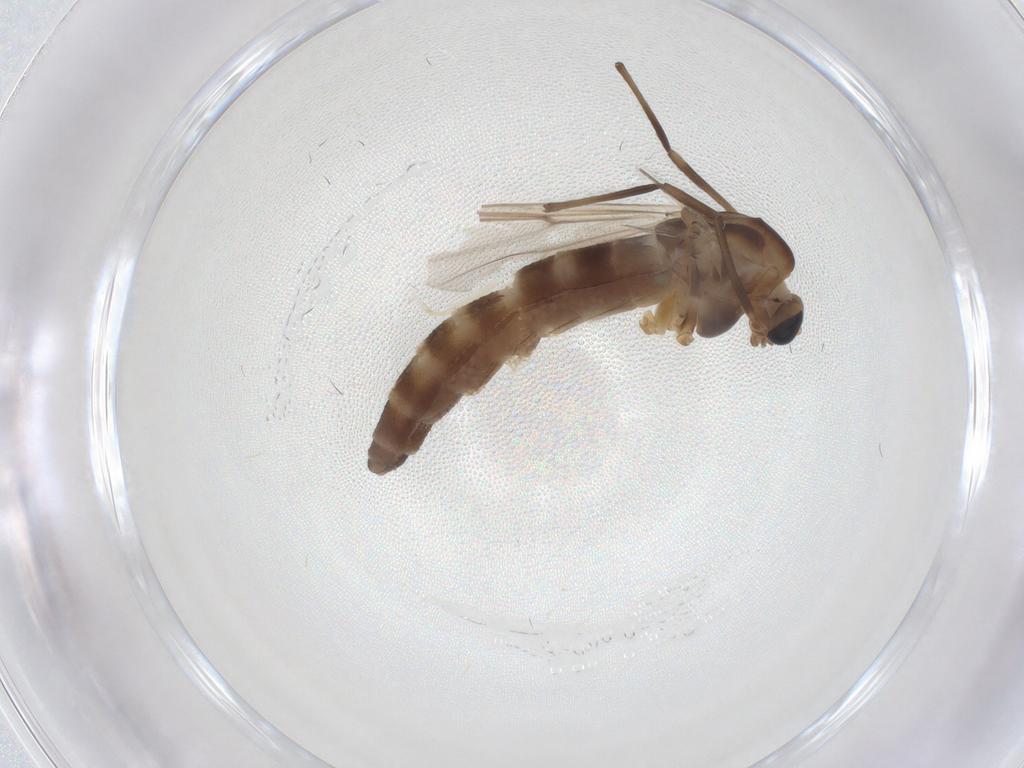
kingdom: Animalia
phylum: Arthropoda
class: Insecta
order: Diptera
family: Chironomidae
